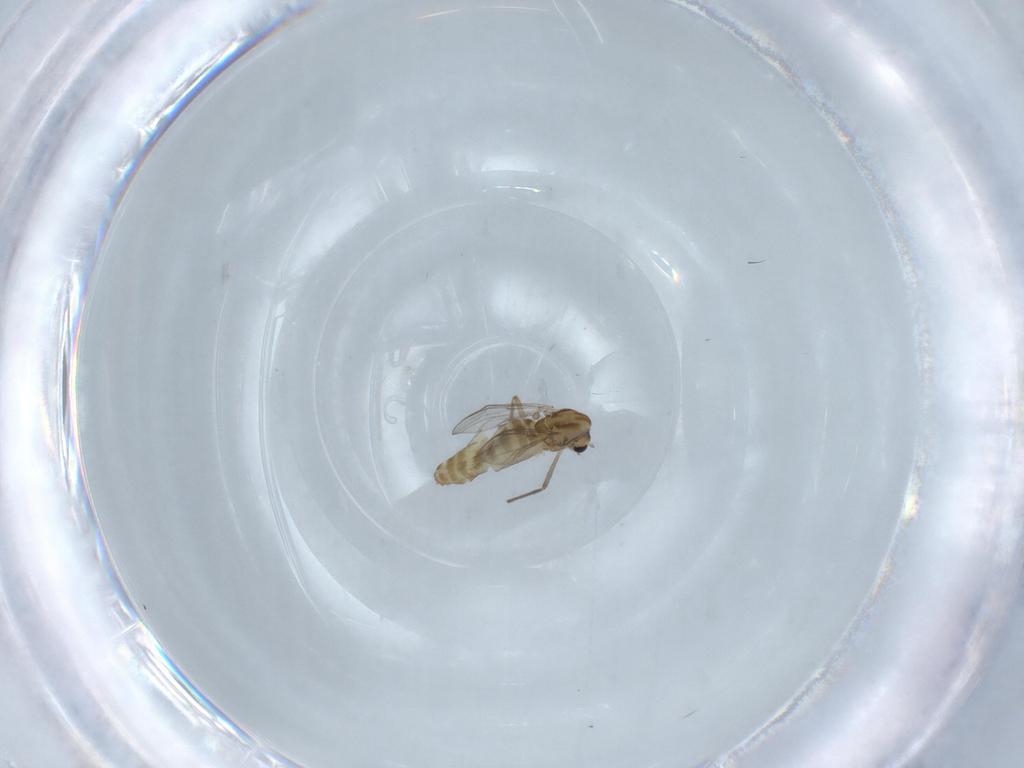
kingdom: Animalia
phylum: Arthropoda
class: Insecta
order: Diptera
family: Chironomidae
